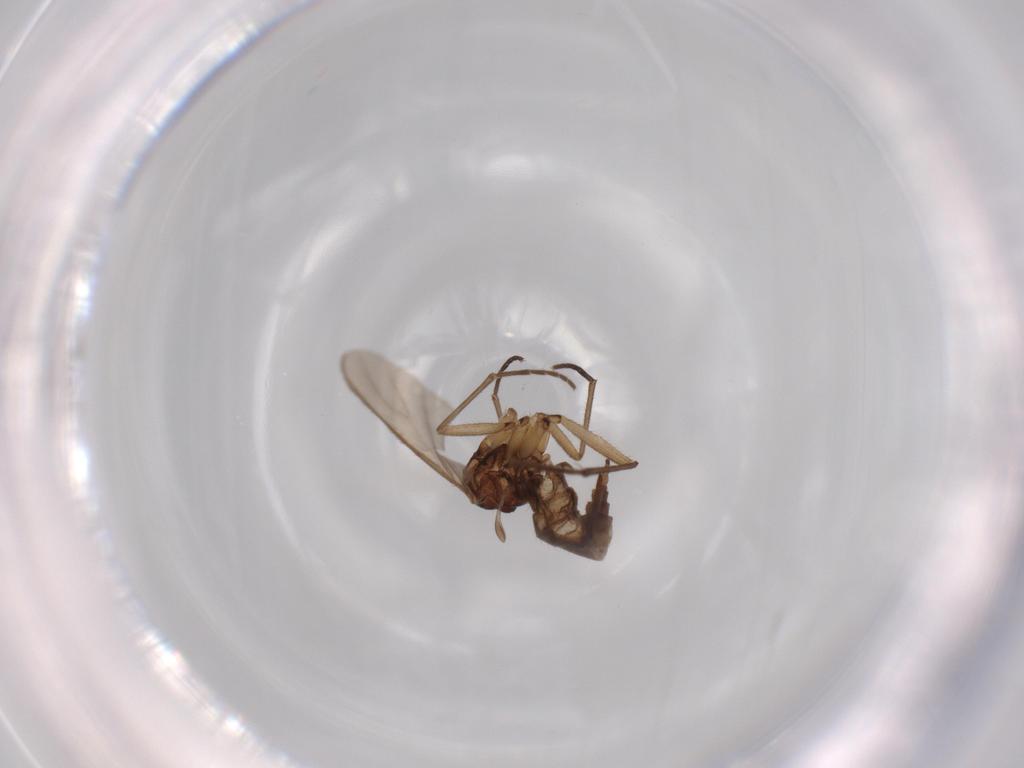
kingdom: Animalia
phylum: Arthropoda
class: Insecta
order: Diptera
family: Sciaridae
